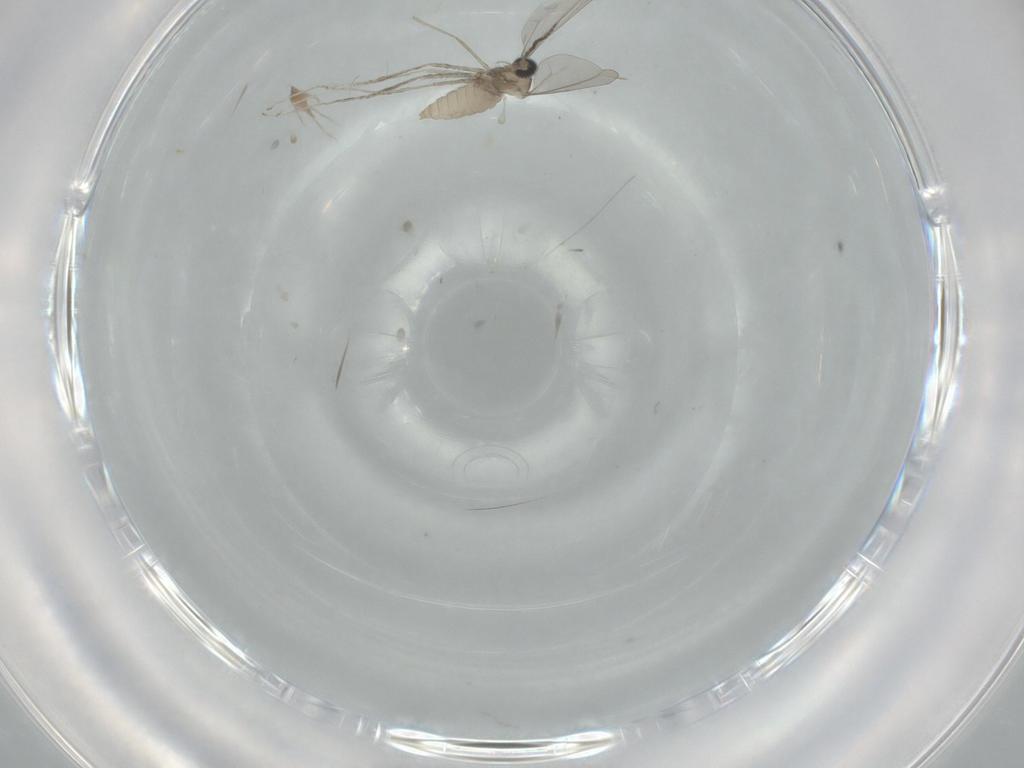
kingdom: Animalia
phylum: Arthropoda
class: Insecta
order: Diptera
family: Cecidomyiidae
